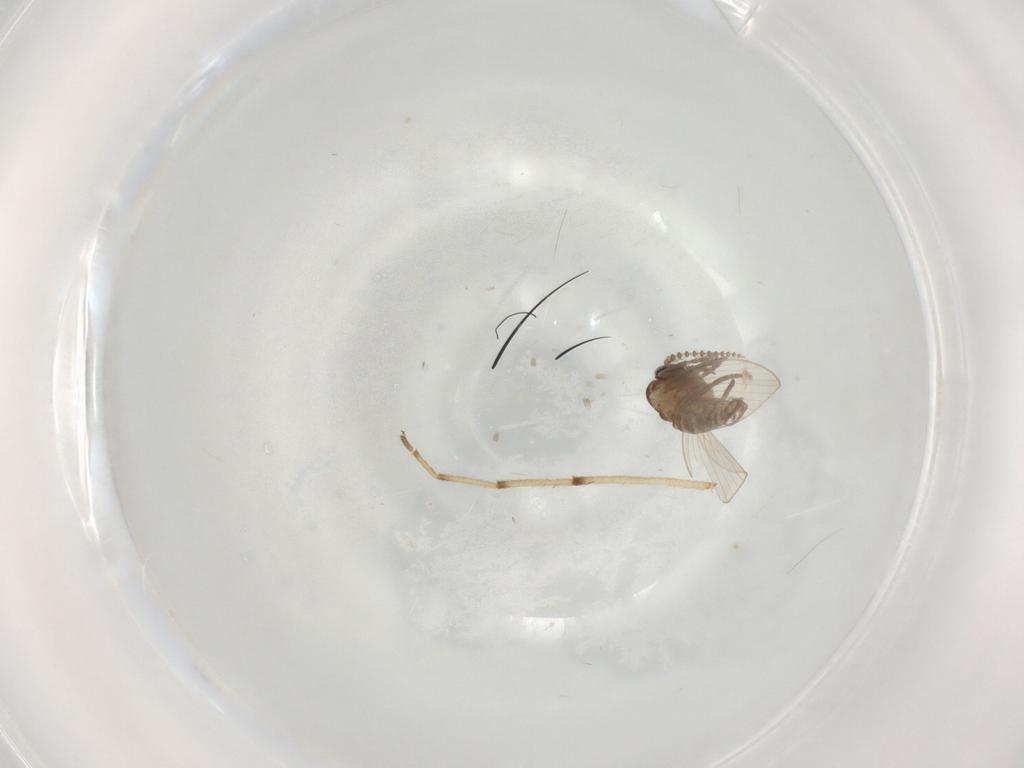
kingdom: Animalia
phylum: Arthropoda
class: Insecta
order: Diptera
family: Psychodidae
